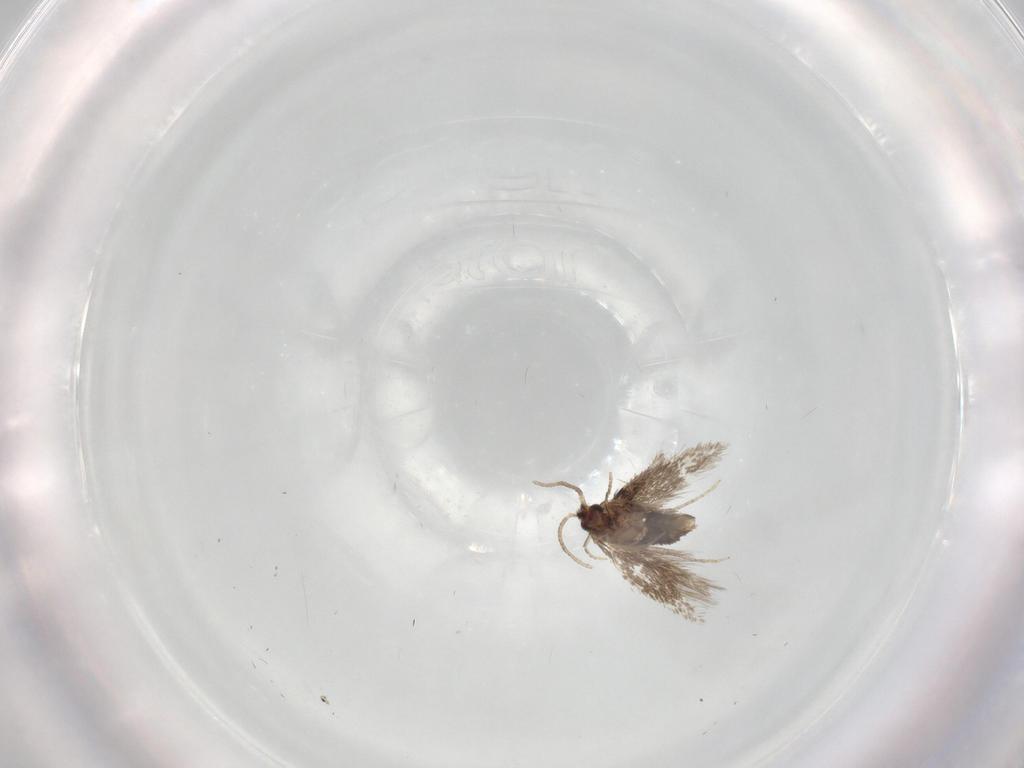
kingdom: Animalia
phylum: Arthropoda
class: Insecta
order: Lepidoptera
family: Nepticulidae
